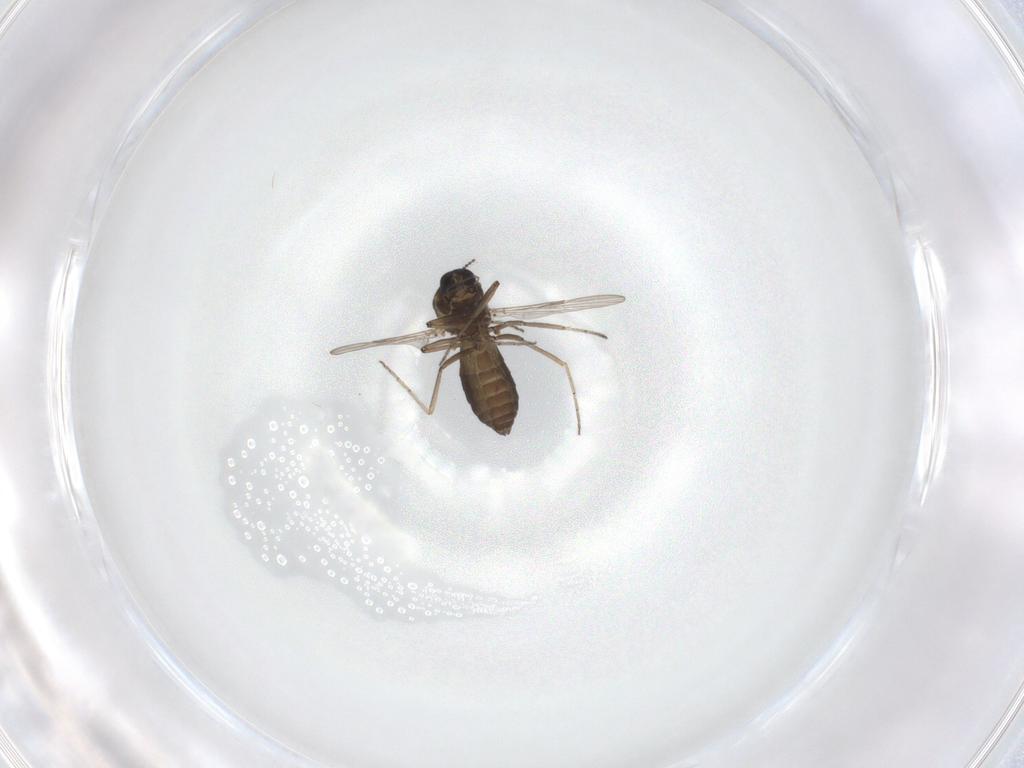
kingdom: Animalia
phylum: Arthropoda
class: Insecta
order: Diptera
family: Ceratopogonidae
